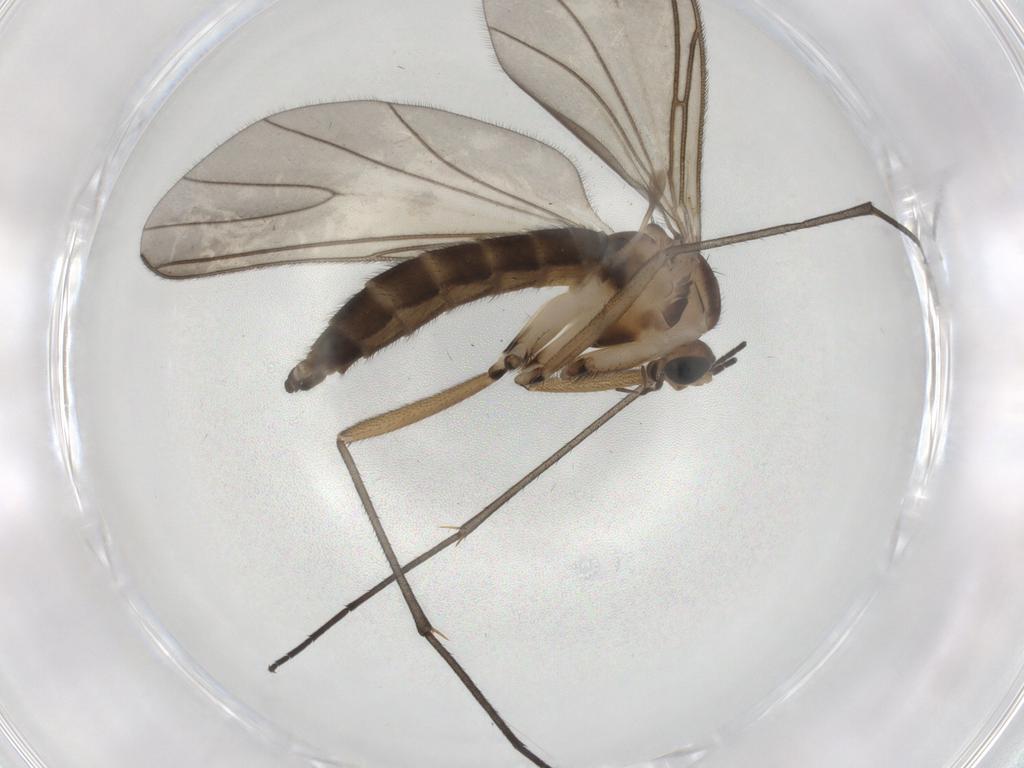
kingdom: Animalia
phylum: Arthropoda
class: Insecta
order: Diptera
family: Sciaridae
